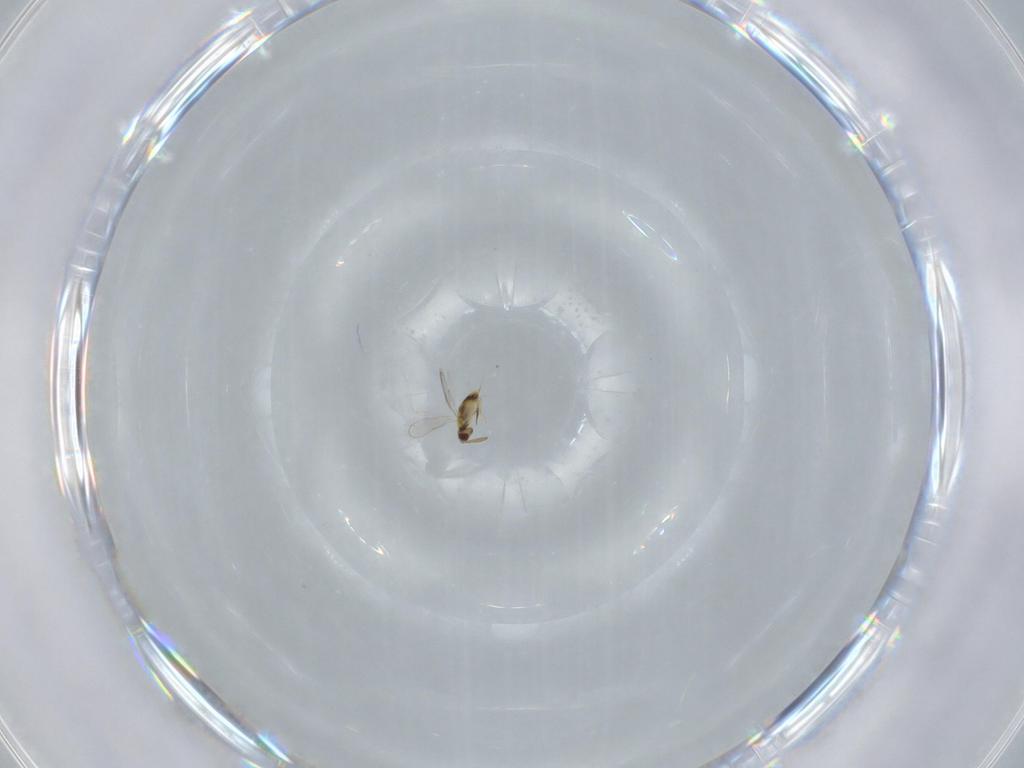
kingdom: Animalia
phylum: Arthropoda
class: Insecta
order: Hymenoptera
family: Aphelinidae
